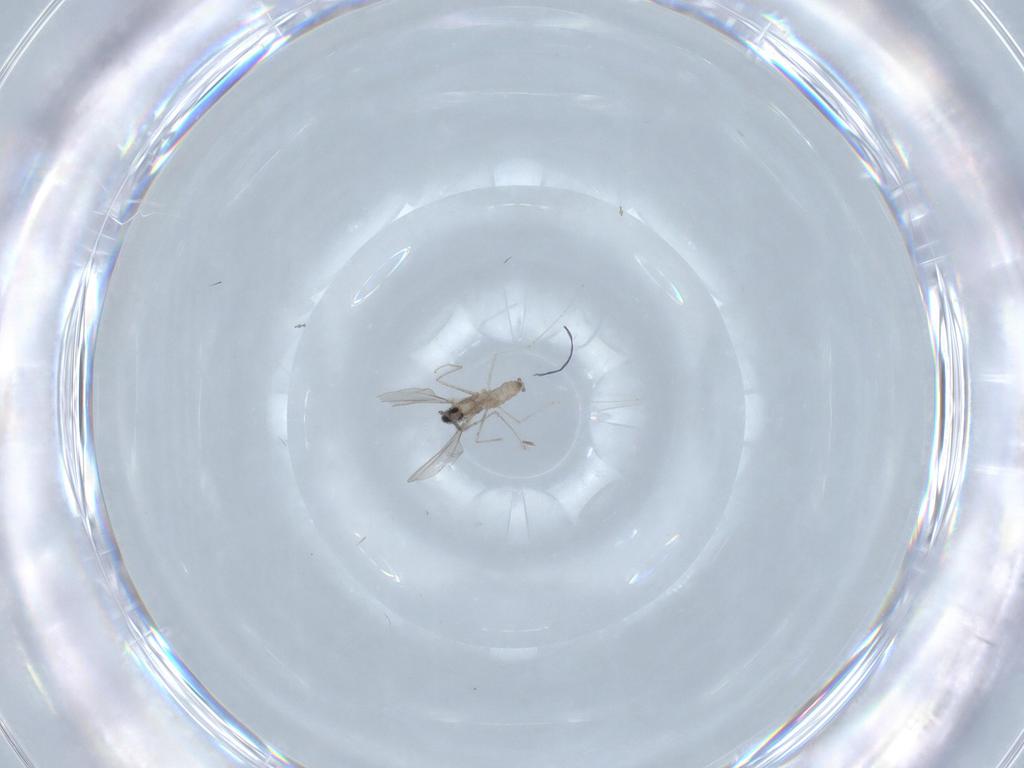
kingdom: Animalia
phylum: Arthropoda
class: Insecta
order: Diptera
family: Cecidomyiidae
